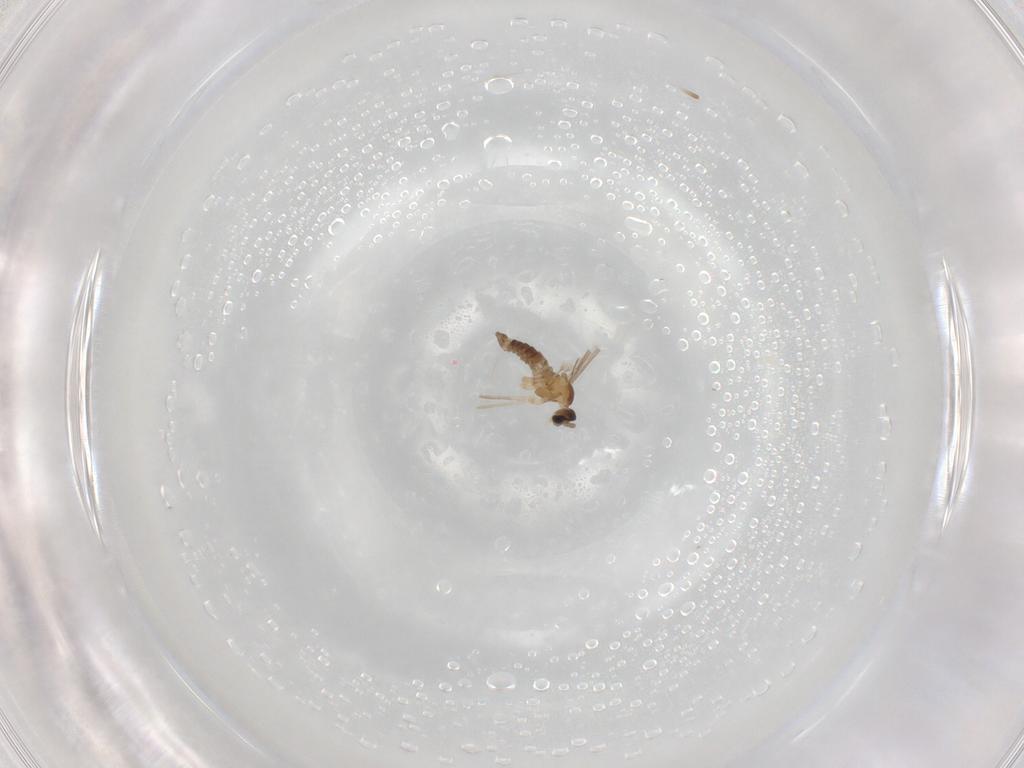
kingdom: Animalia
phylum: Arthropoda
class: Insecta
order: Diptera
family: Cecidomyiidae
